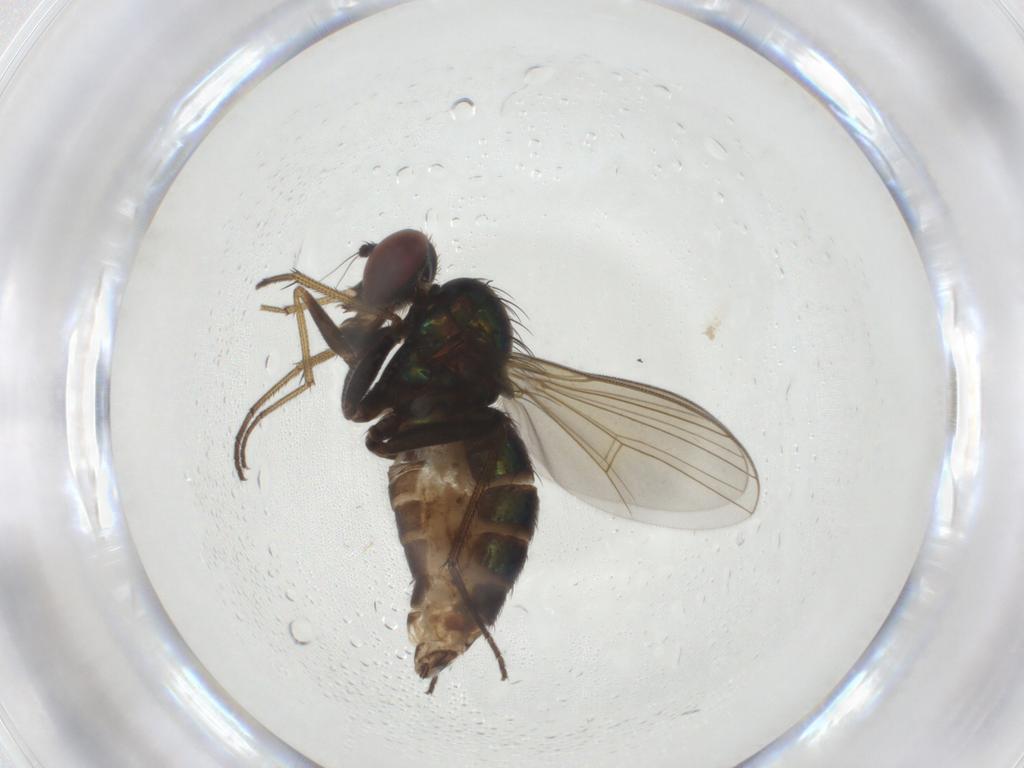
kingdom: Animalia
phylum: Arthropoda
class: Insecta
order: Diptera
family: Dolichopodidae
